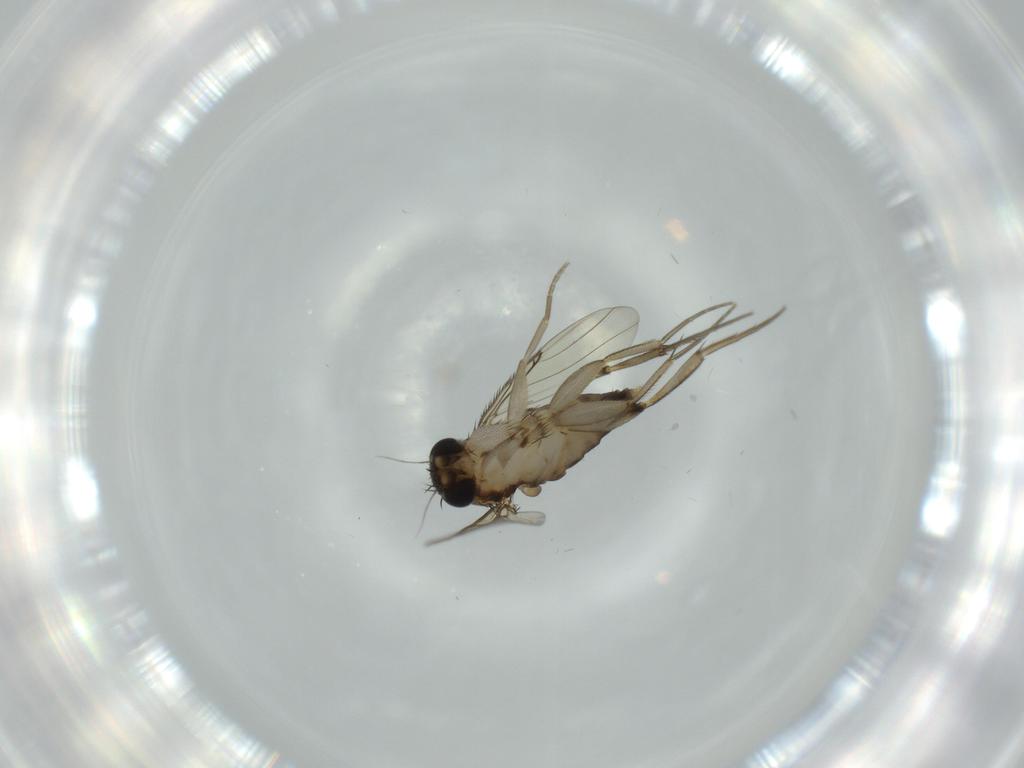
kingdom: Animalia
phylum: Arthropoda
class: Insecta
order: Diptera
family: Phoridae
